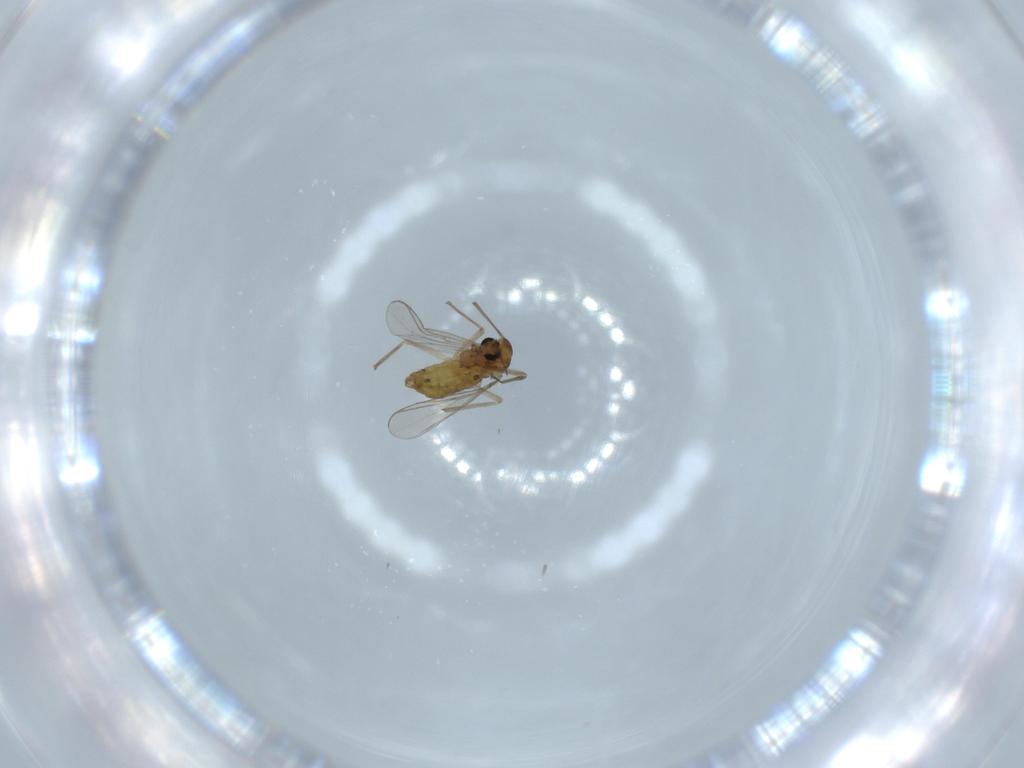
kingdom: Animalia
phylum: Arthropoda
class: Insecta
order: Diptera
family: Chironomidae
